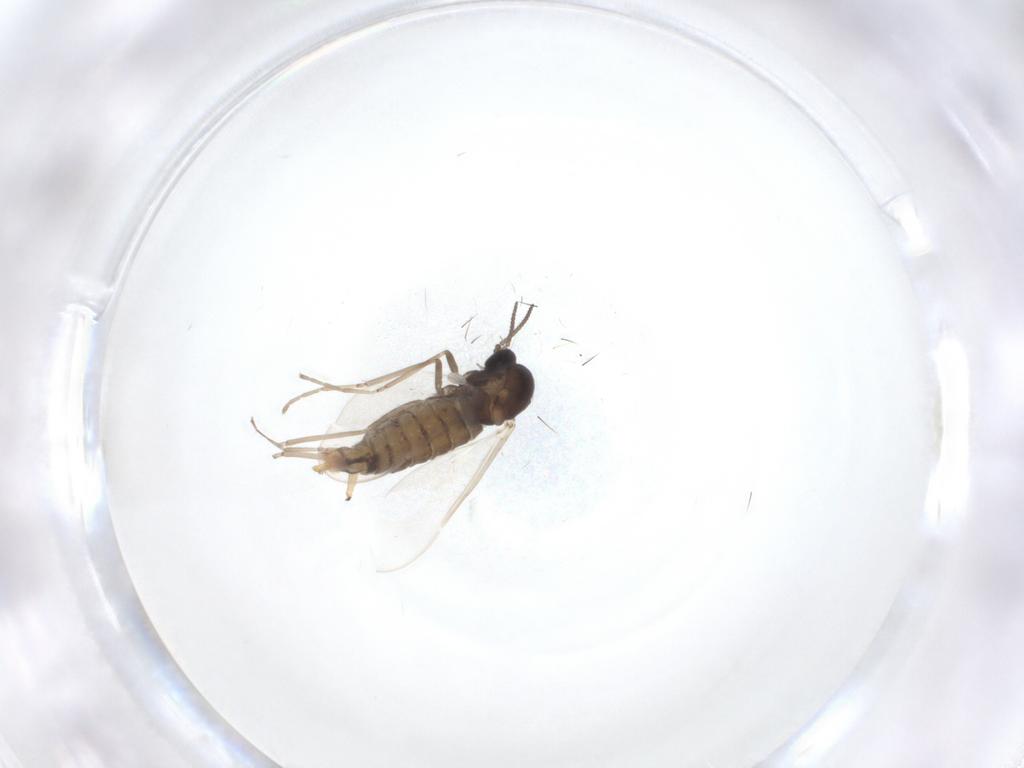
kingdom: Animalia
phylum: Arthropoda
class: Insecta
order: Diptera
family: Cecidomyiidae
